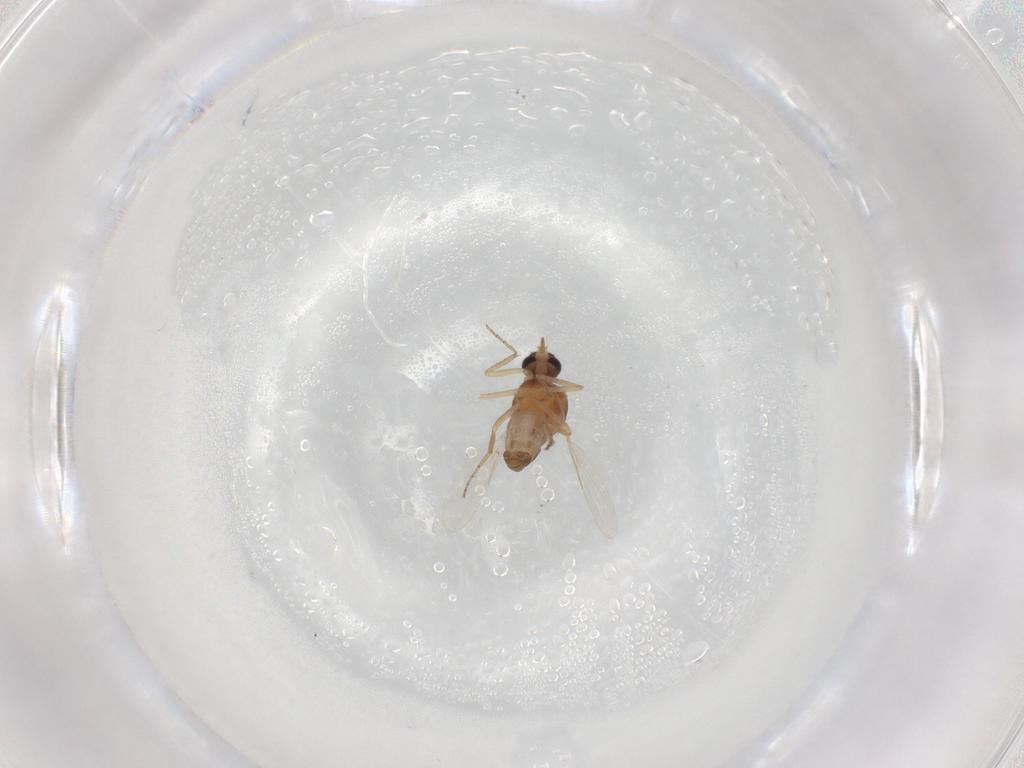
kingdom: Animalia
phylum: Arthropoda
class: Insecta
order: Diptera
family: Ceratopogonidae
